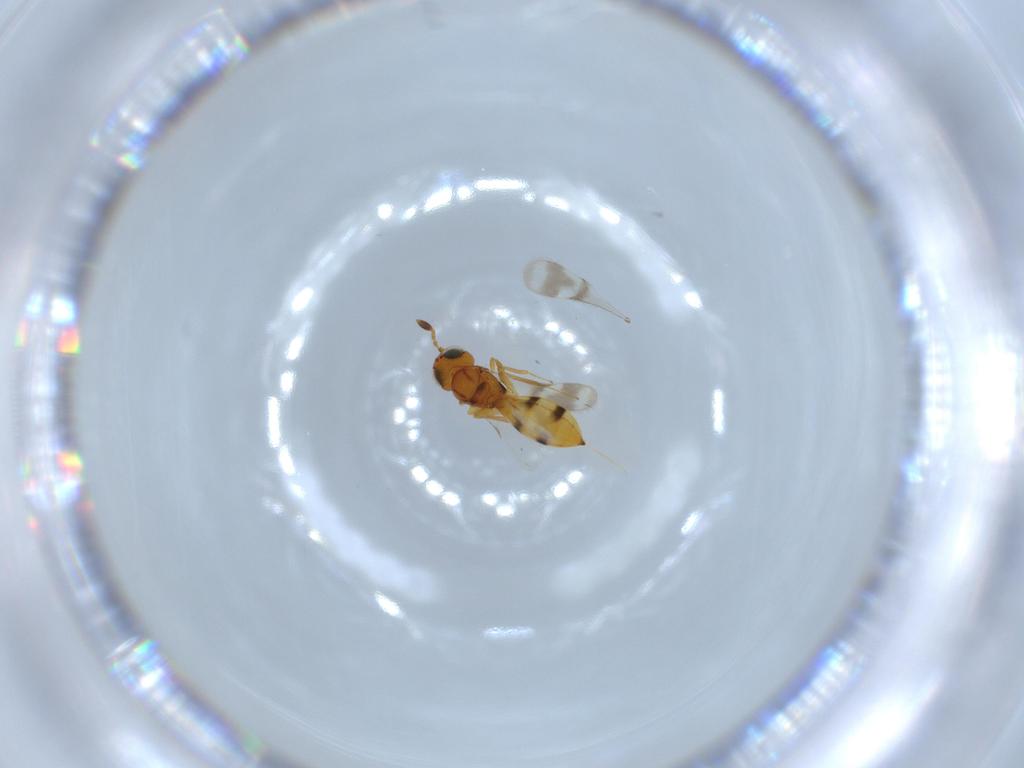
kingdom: Animalia
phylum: Arthropoda
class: Insecta
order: Hymenoptera
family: Scelionidae
